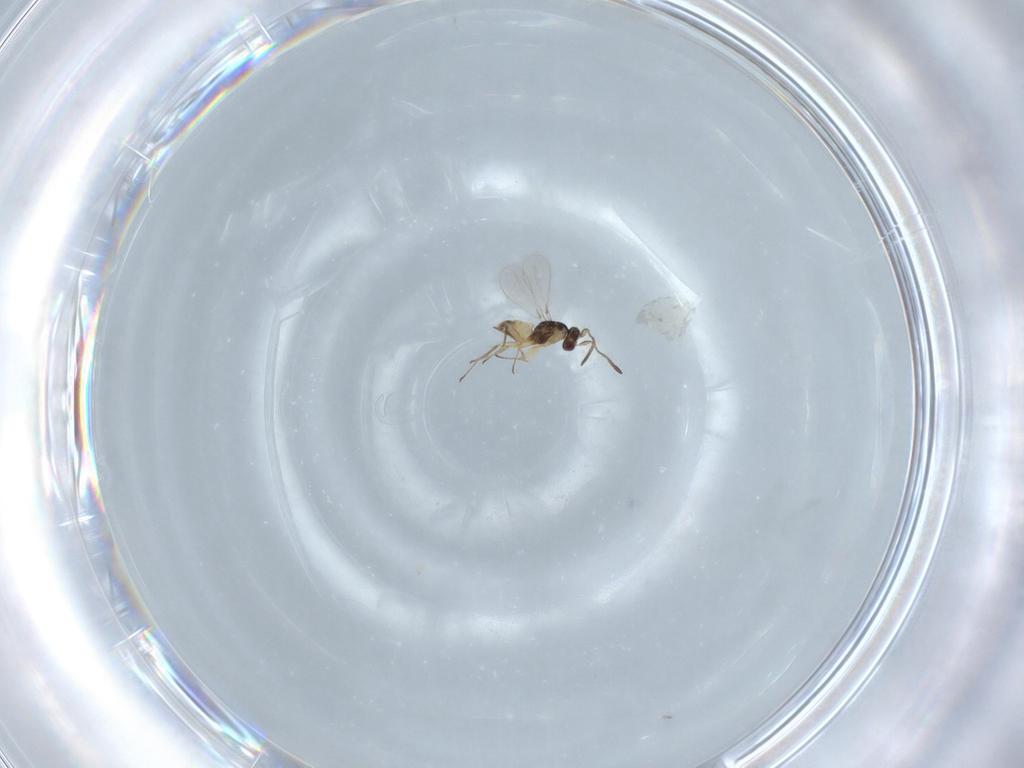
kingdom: Animalia
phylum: Arthropoda
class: Insecta
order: Hymenoptera
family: Mymaridae
